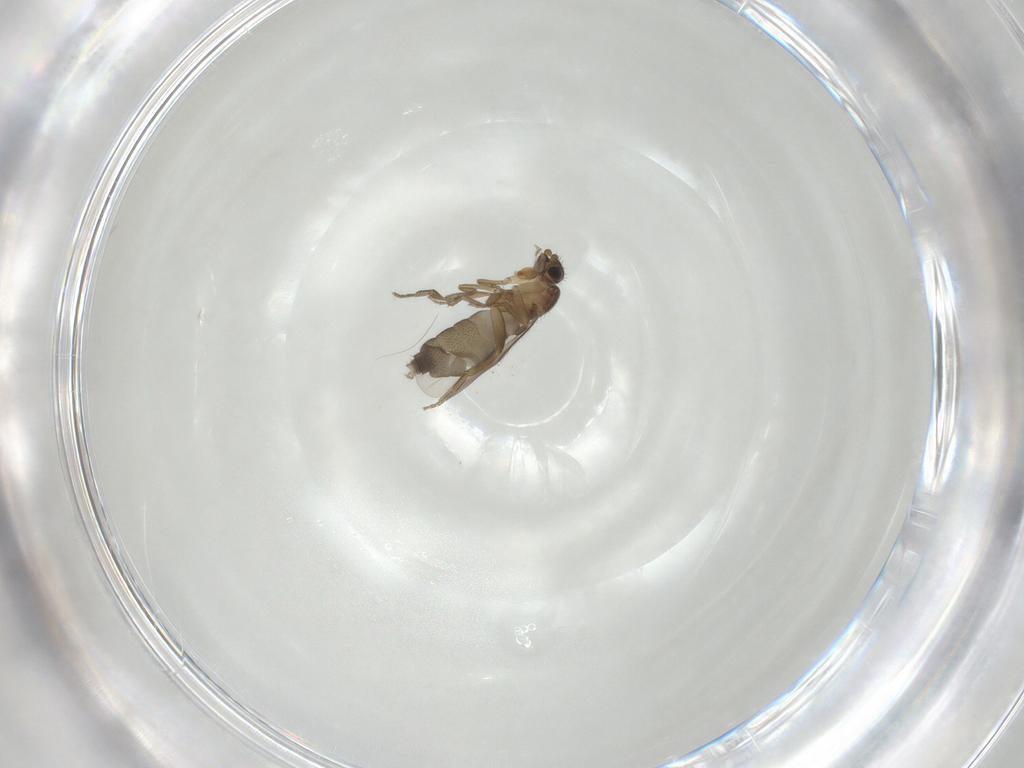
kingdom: Animalia
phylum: Arthropoda
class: Insecta
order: Diptera
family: Phoridae
